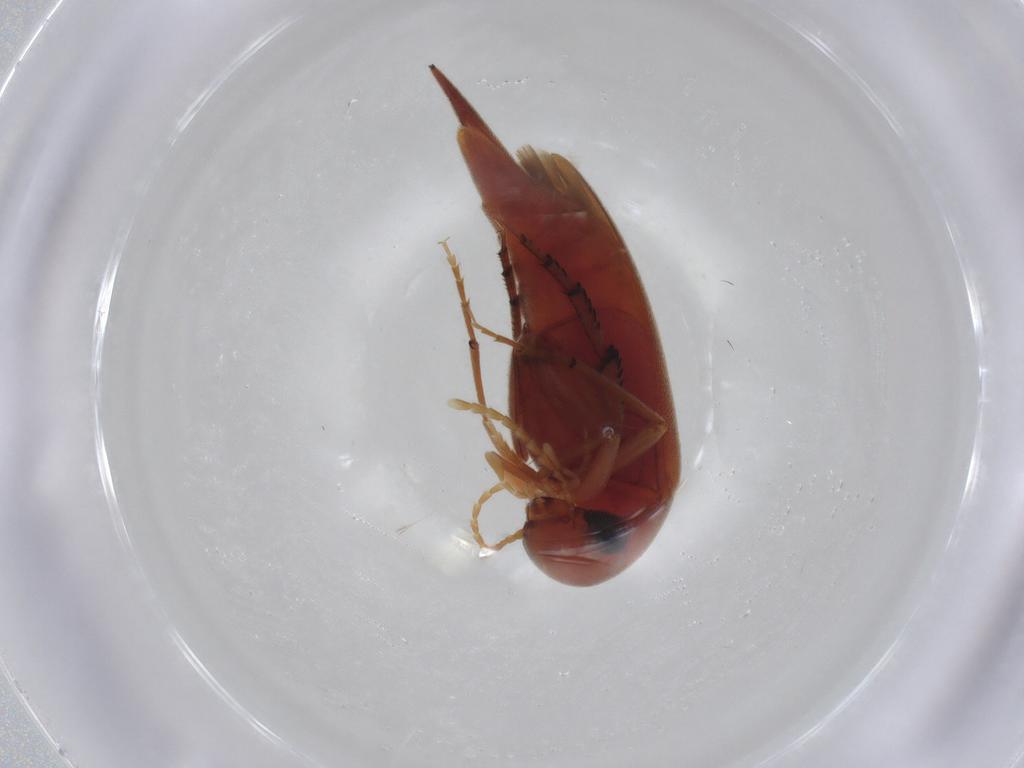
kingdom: Animalia
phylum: Arthropoda
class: Insecta
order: Coleoptera
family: Mordellidae
